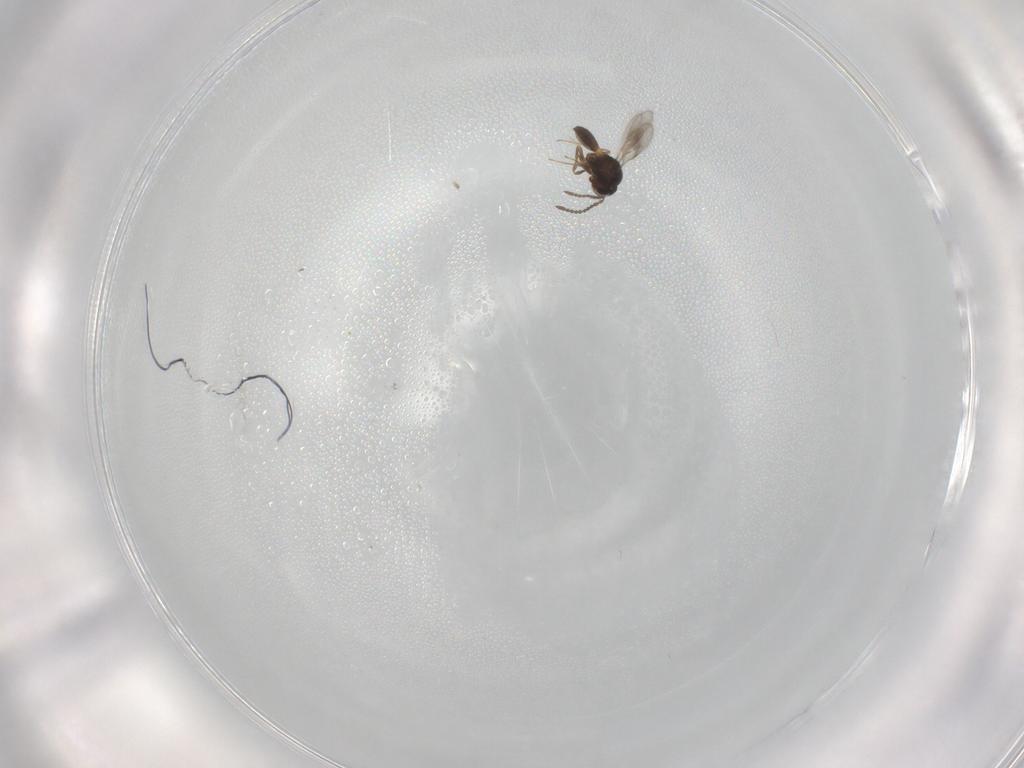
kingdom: Animalia
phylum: Arthropoda
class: Insecta
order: Hymenoptera
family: Scelionidae
